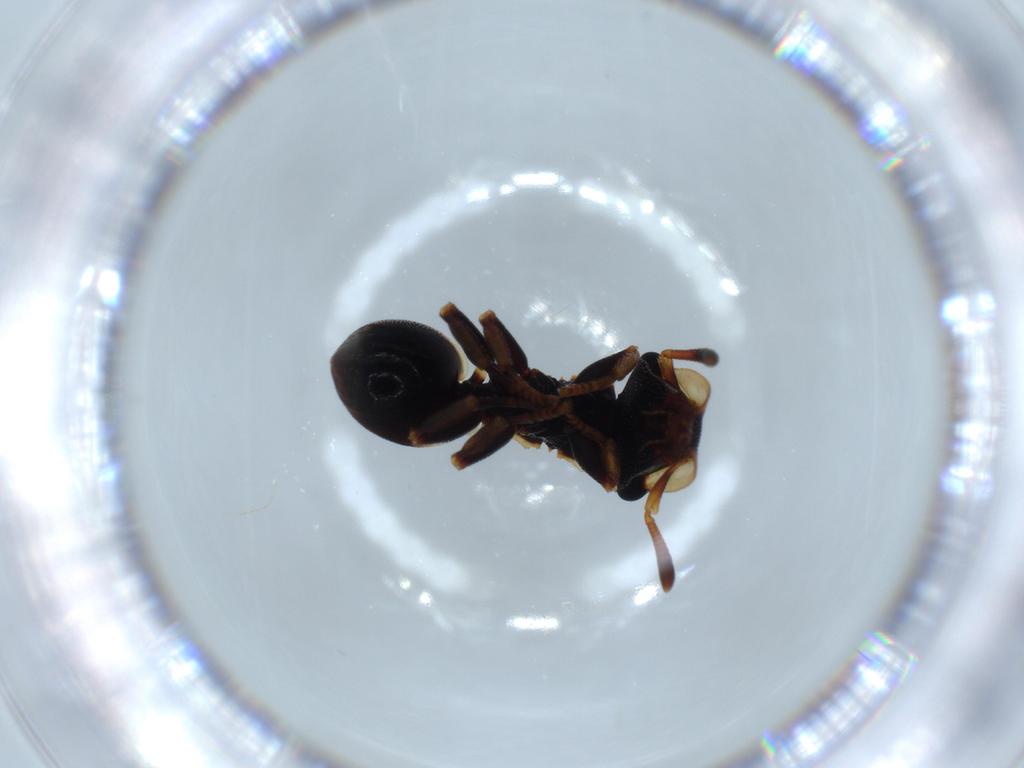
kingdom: Animalia
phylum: Arthropoda
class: Insecta
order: Hymenoptera
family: Formicidae
